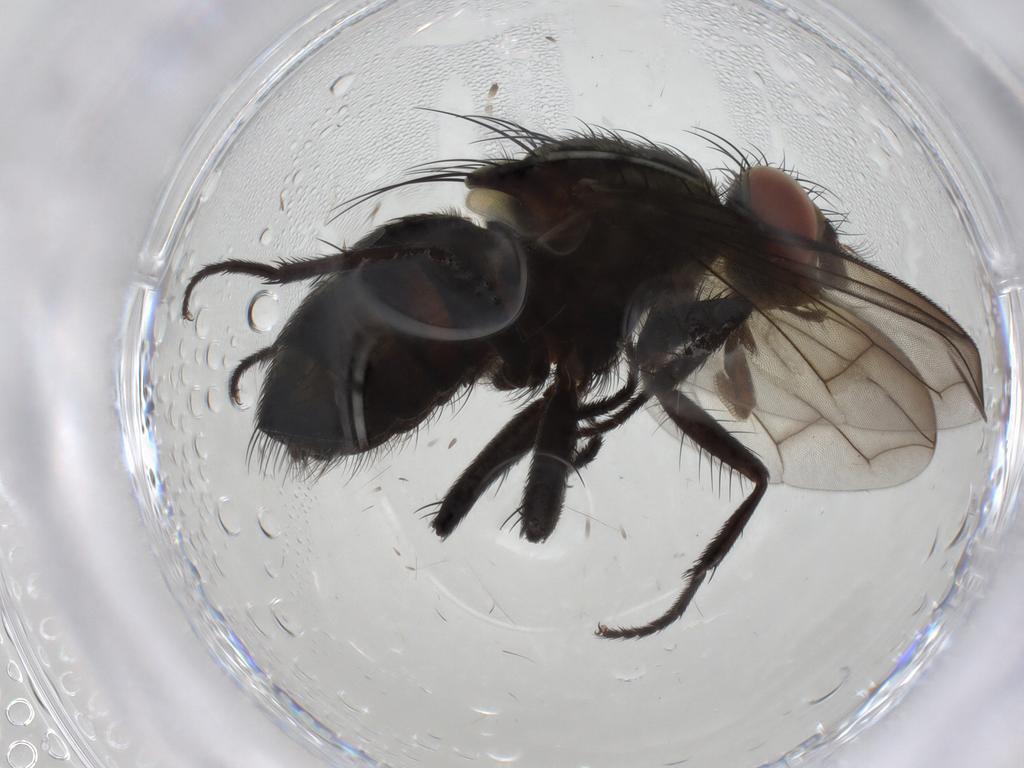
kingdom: Animalia
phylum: Arthropoda
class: Insecta
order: Diptera
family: Sarcophagidae
